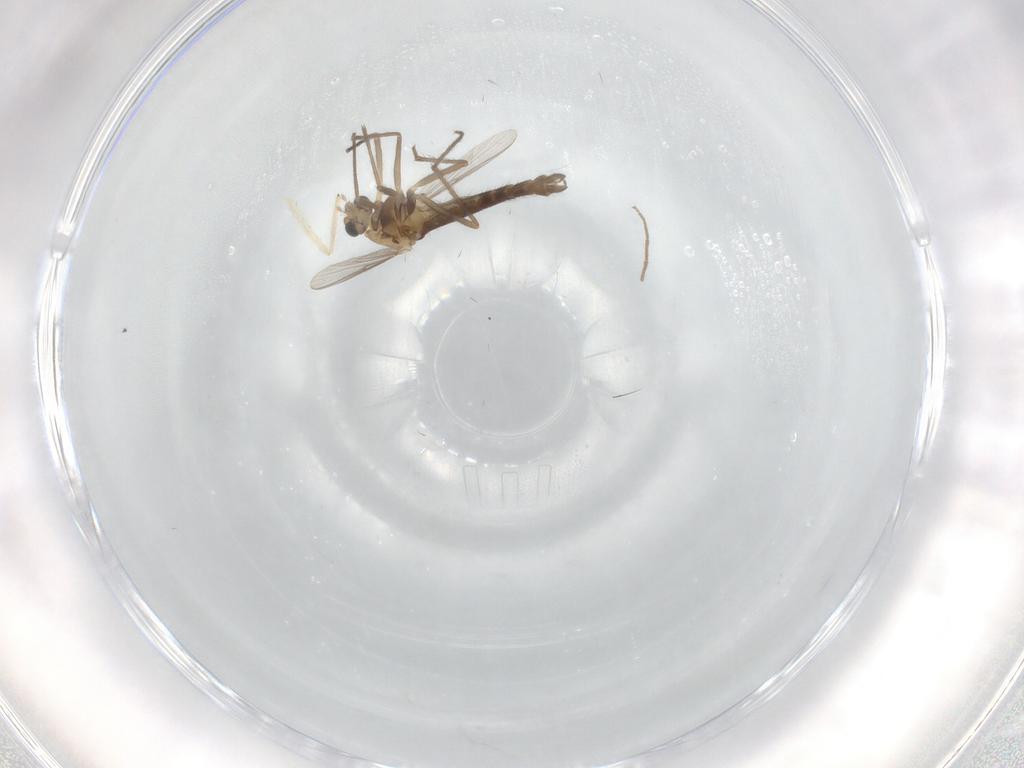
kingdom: Animalia
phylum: Arthropoda
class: Insecta
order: Diptera
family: Chironomidae
